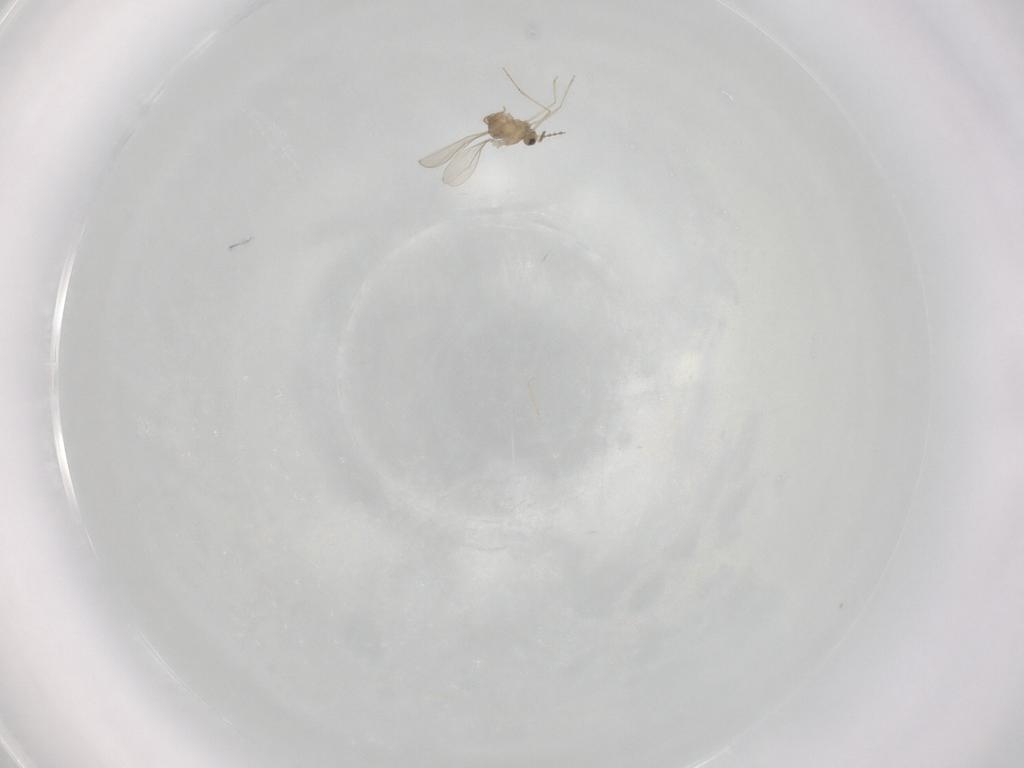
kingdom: Animalia
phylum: Arthropoda
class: Insecta
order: Diptera
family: Cecidomyiidae
